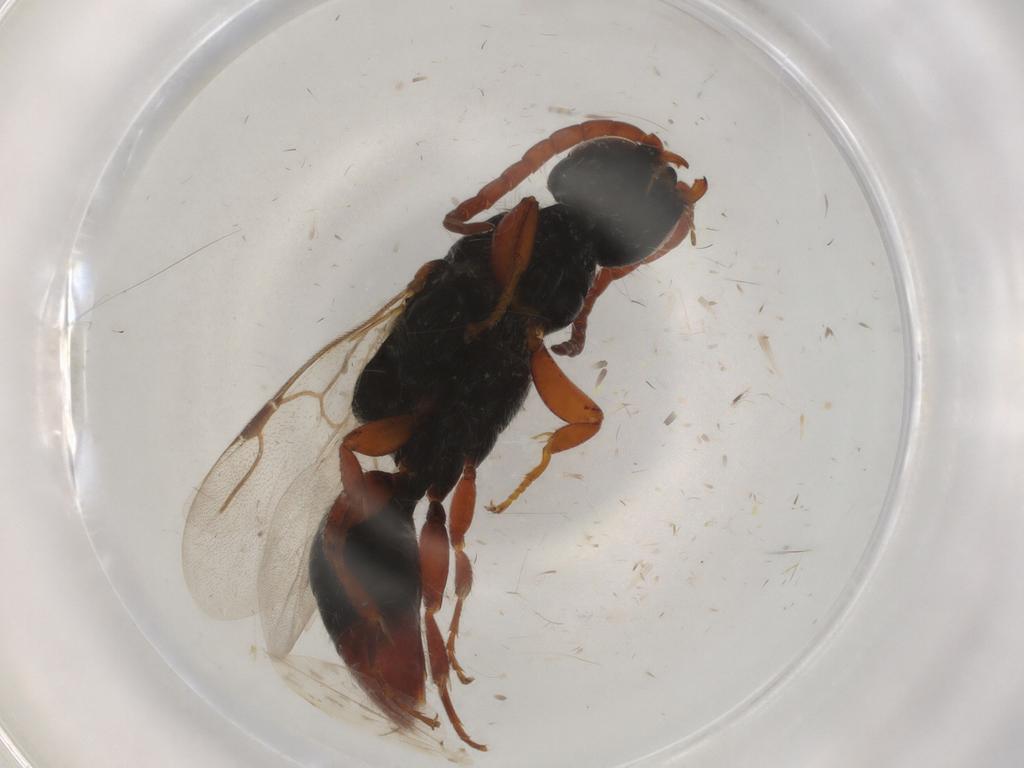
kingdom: Animalia
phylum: Arthropoda
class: Insecta
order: Hymenoptera
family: Bethylidae
